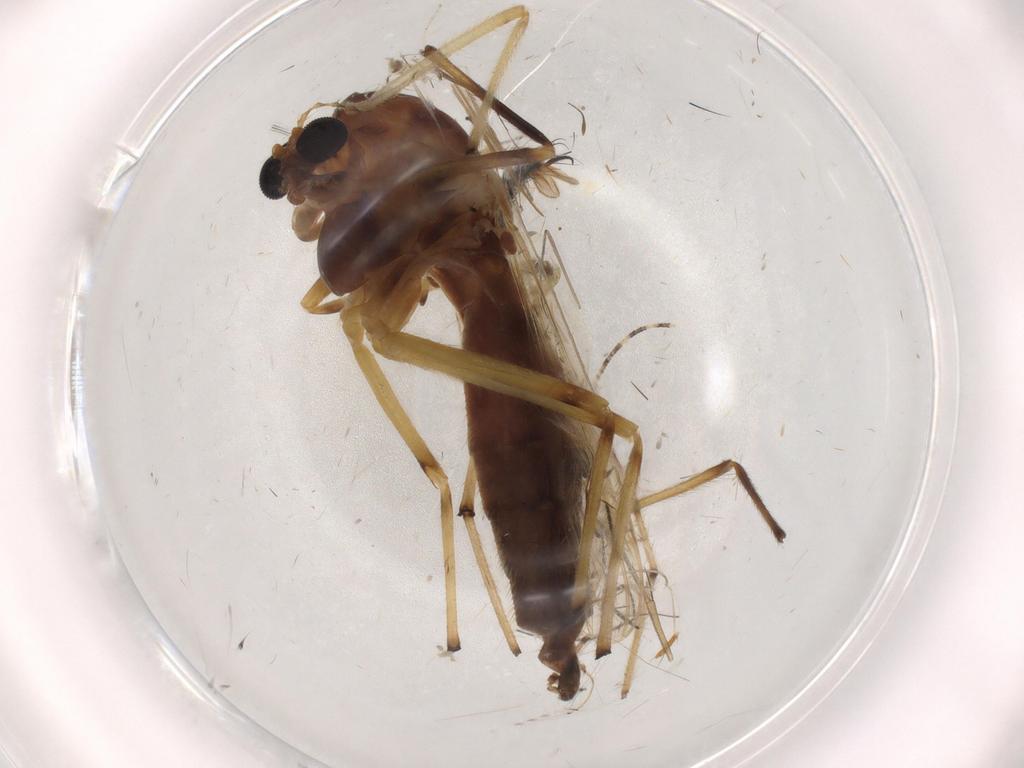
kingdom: Animalia
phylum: Arthropoda
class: Insecta
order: Diptera
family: Chironomidae
